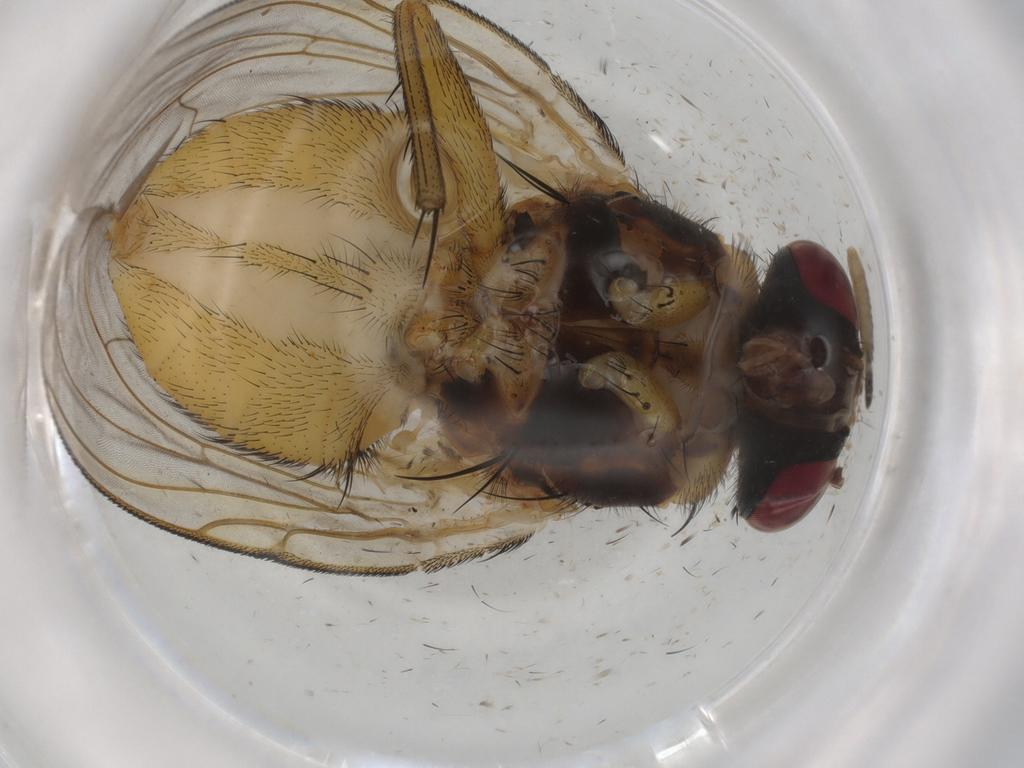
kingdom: Animalia
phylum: Arthropoda
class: Insecta
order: Diptera
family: Muscidae
